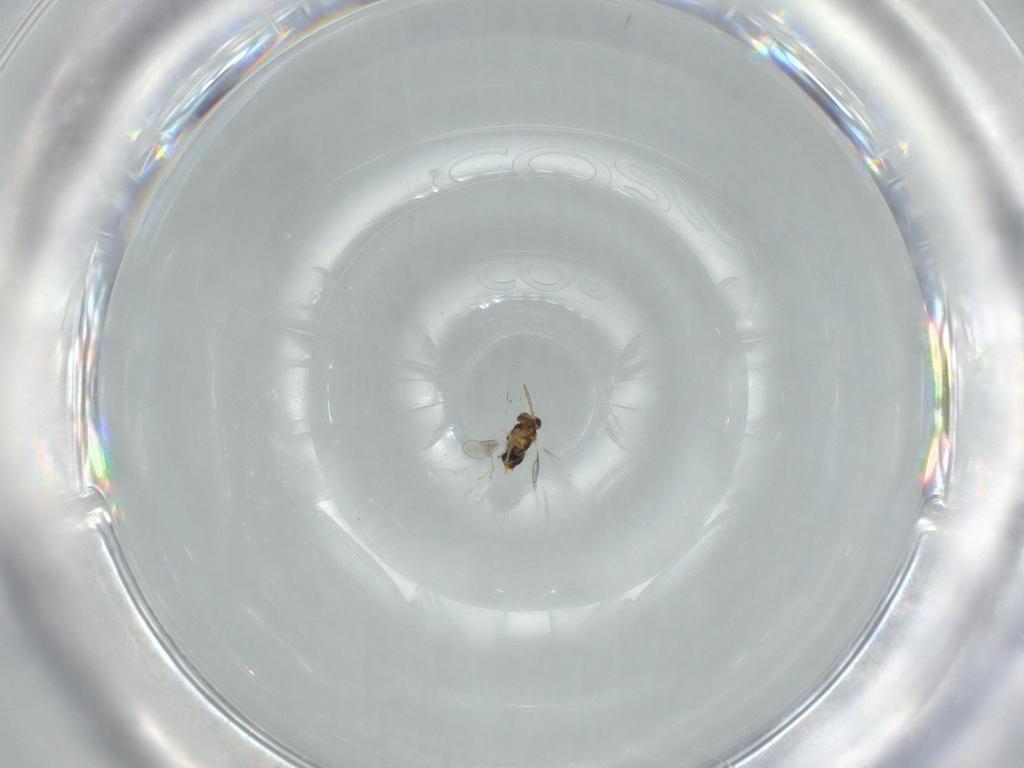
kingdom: Animalia
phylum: Arthropoda
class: Insecta
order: Hymenoptera
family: Aphelinidae
